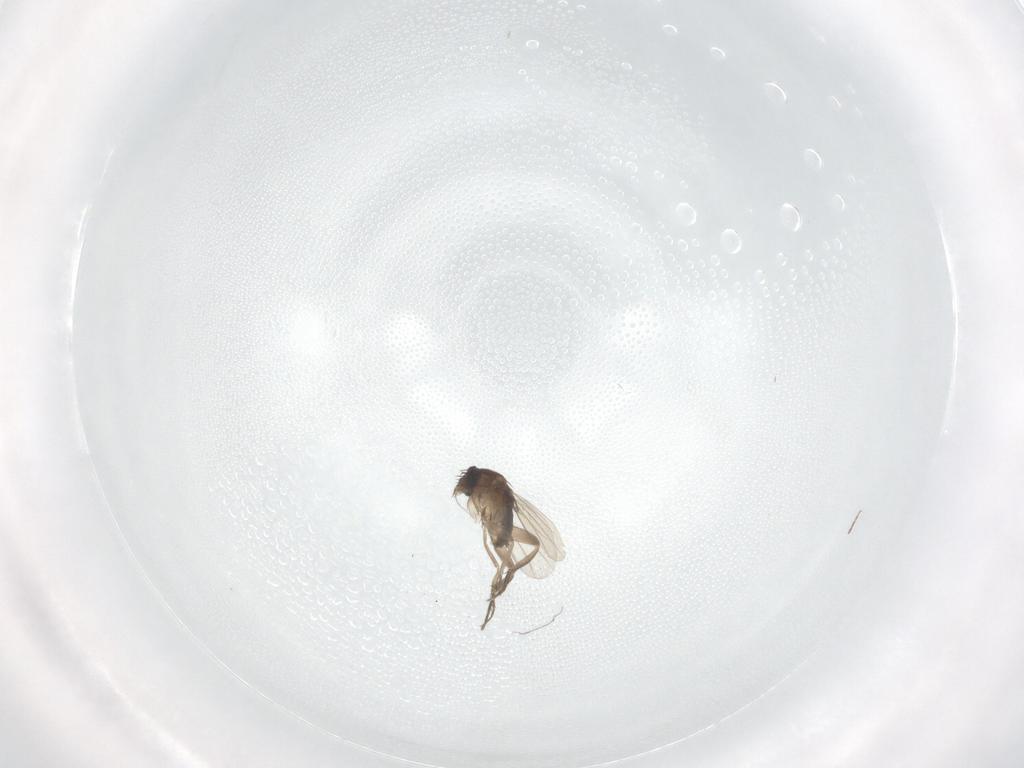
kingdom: Animalia
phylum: Arthropoda
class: Insecta
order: Diptera
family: Phoridae
